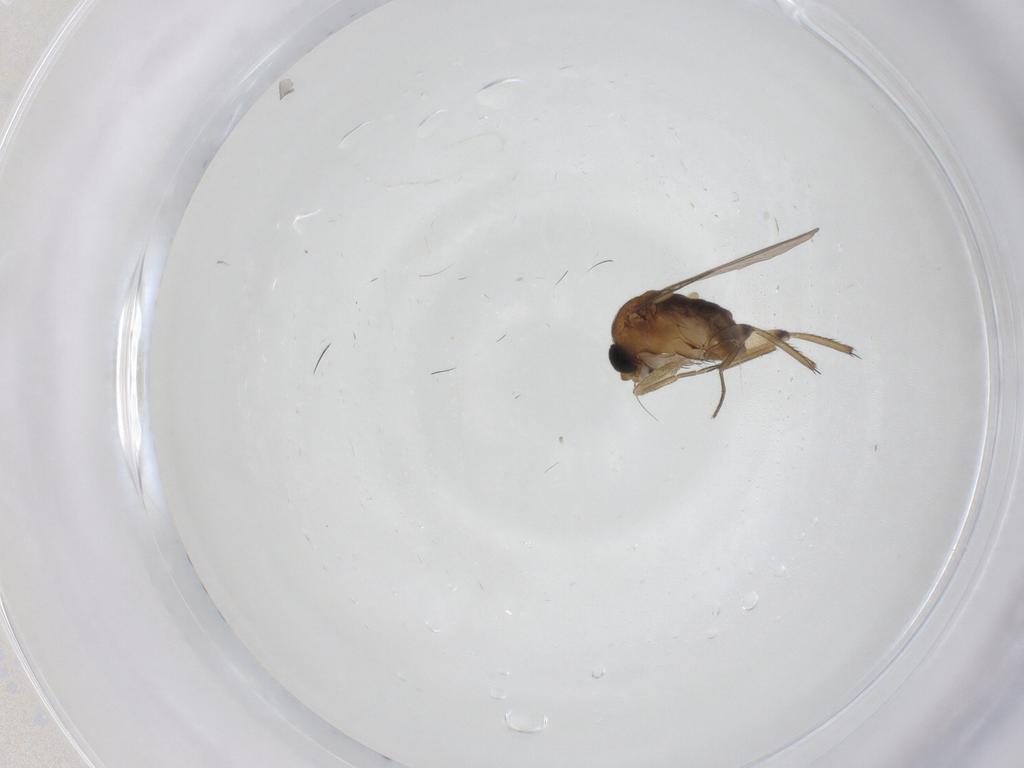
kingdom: Animalia
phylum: Arthropoda
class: Insecta
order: Diptera
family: Phoridae
